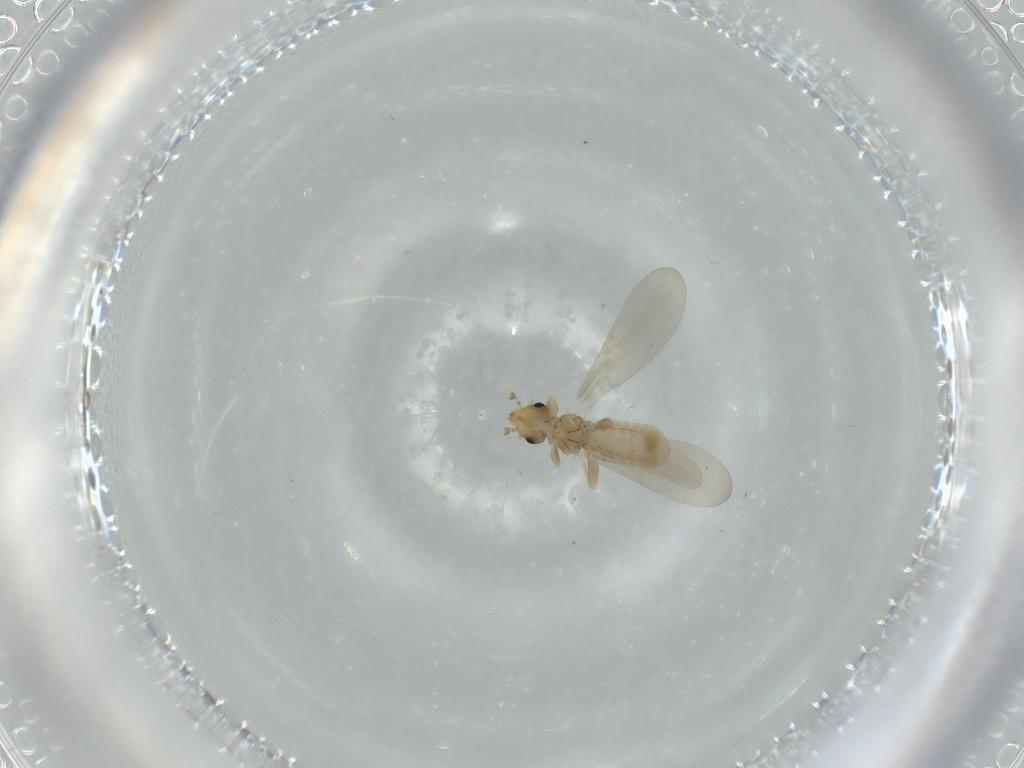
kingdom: Animalia
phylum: Arthropoda
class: Insecta
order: Psocodea
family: Liposcelididae
